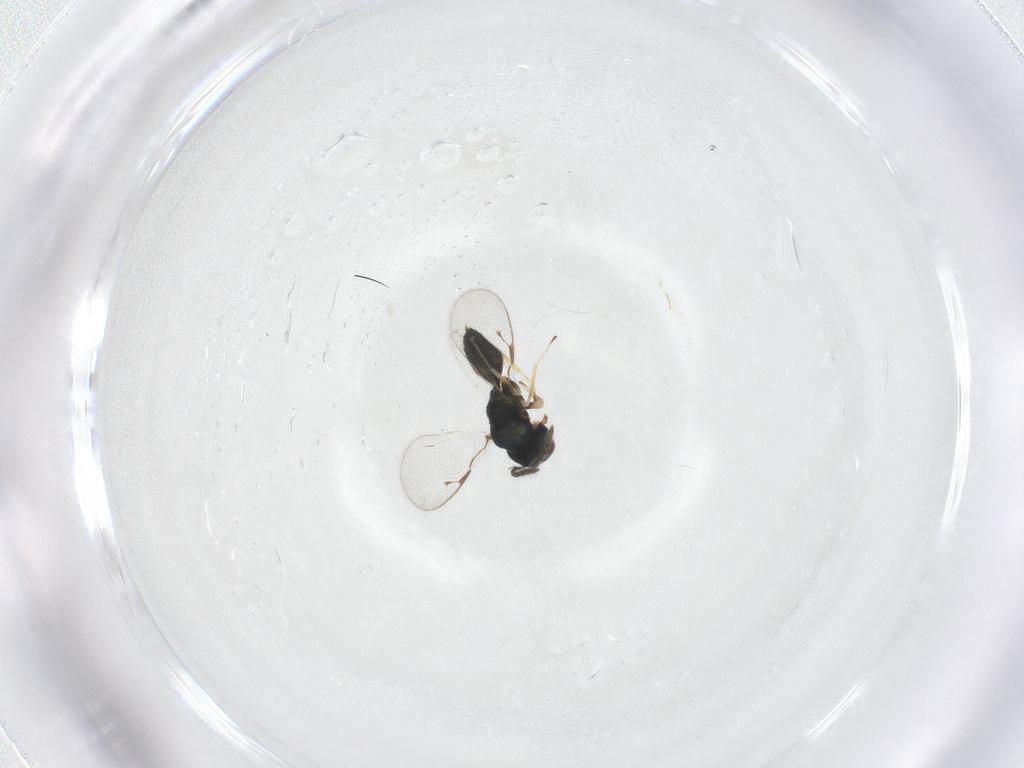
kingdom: Animalia
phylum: Arthropoda
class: Insecta
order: Hymenoptera
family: Pteromalidae
